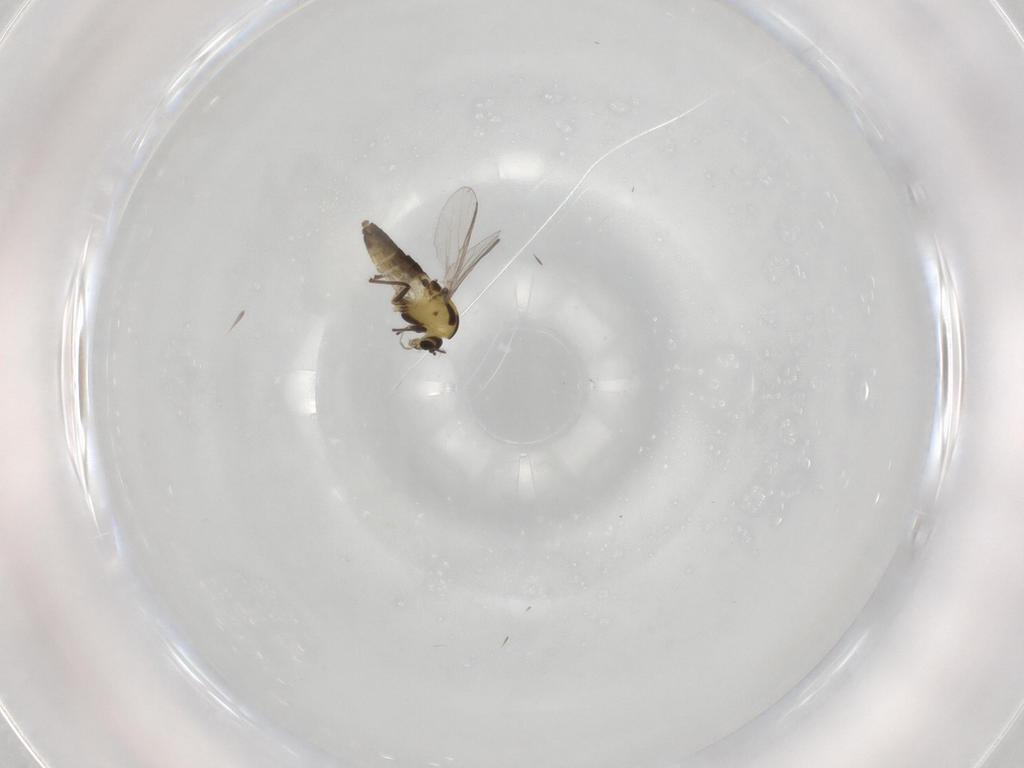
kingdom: Animalia
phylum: Arthropoda
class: Insecta
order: Diptera
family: Chironomidae
